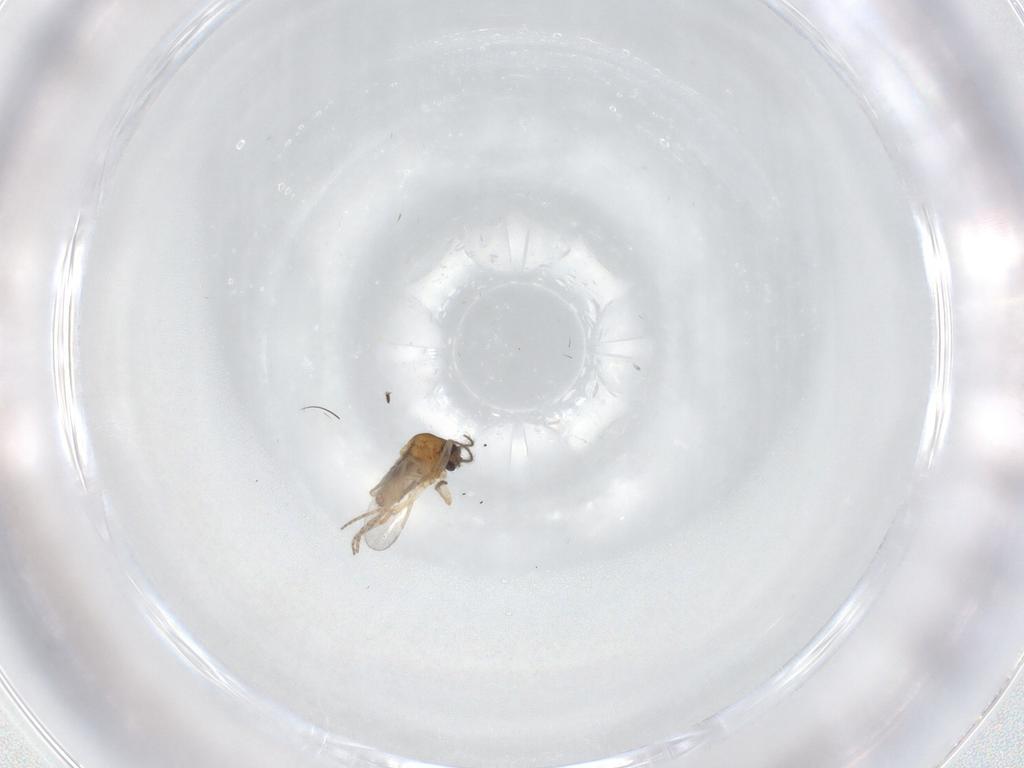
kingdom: Animalia
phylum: Arthropoda
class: Insecta
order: Diptera
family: Ceratopogonidae
